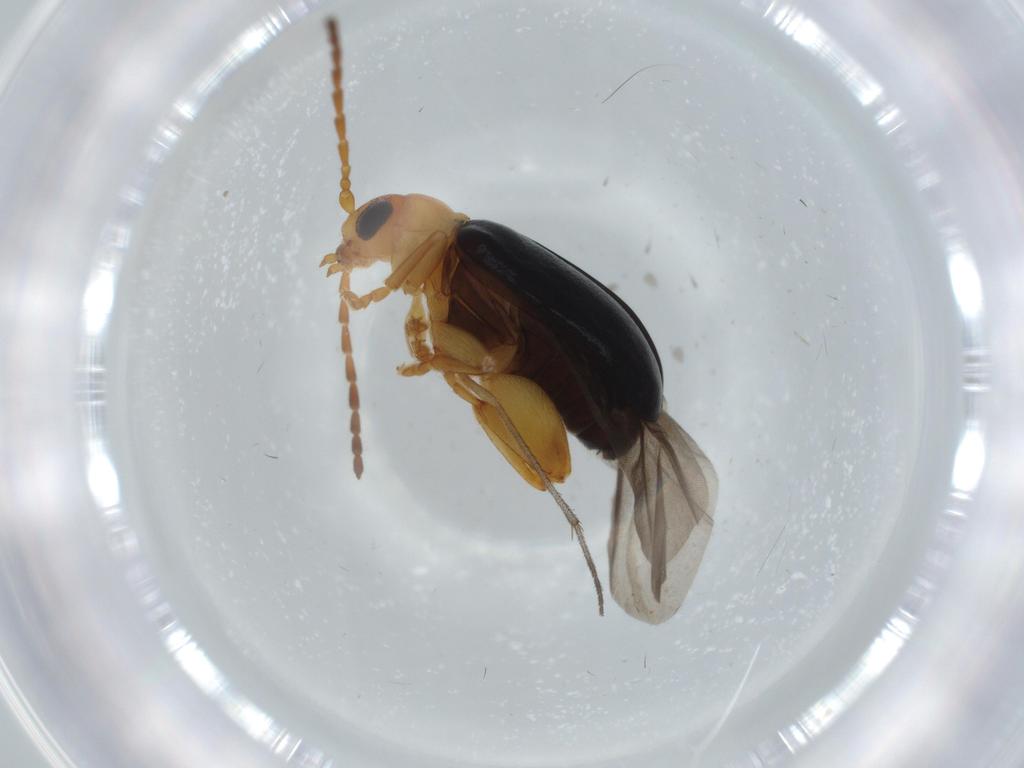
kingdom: Animalia
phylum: Arthropoda
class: Insecta
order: Coleoptera
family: Chrysomelidae
